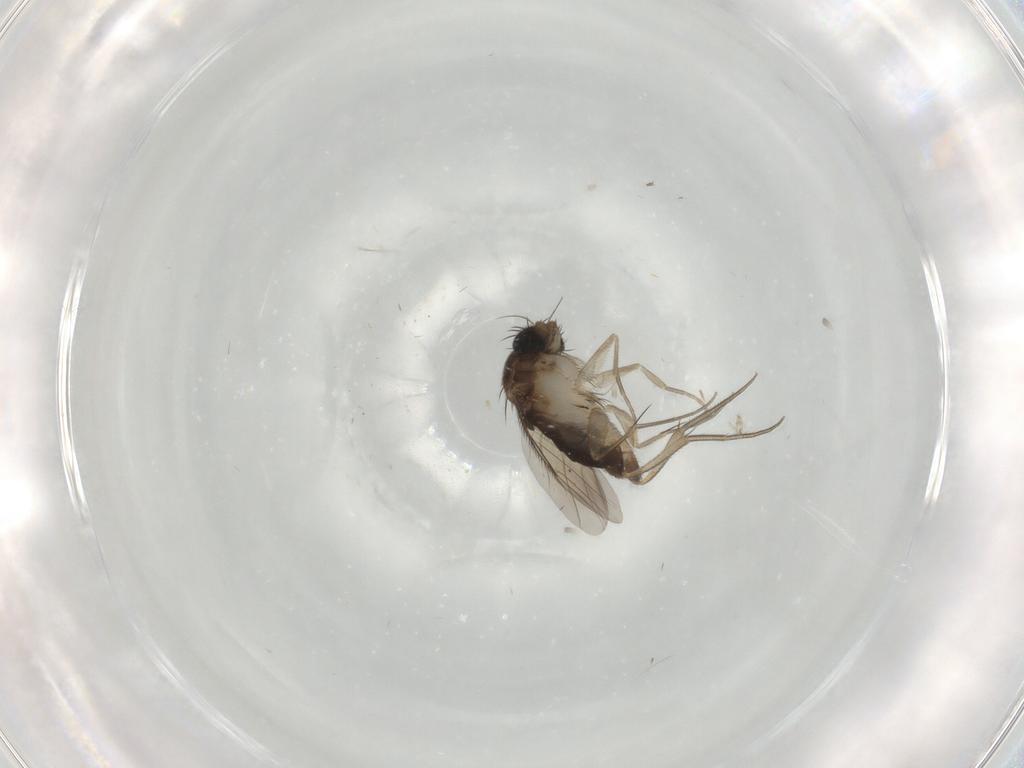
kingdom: Animalia
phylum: Arthropoda
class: Insecta
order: Diptera
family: Phoridae
